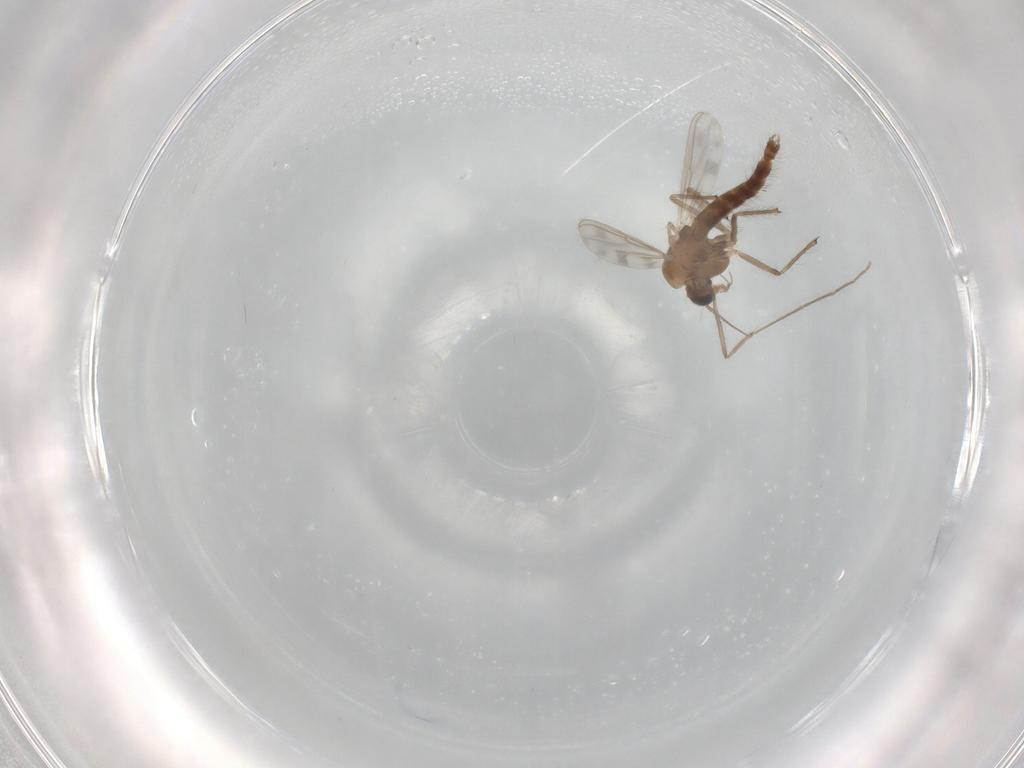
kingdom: Animalia
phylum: Arthropoda
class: Insecta
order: Diptera
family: Chironomidae
